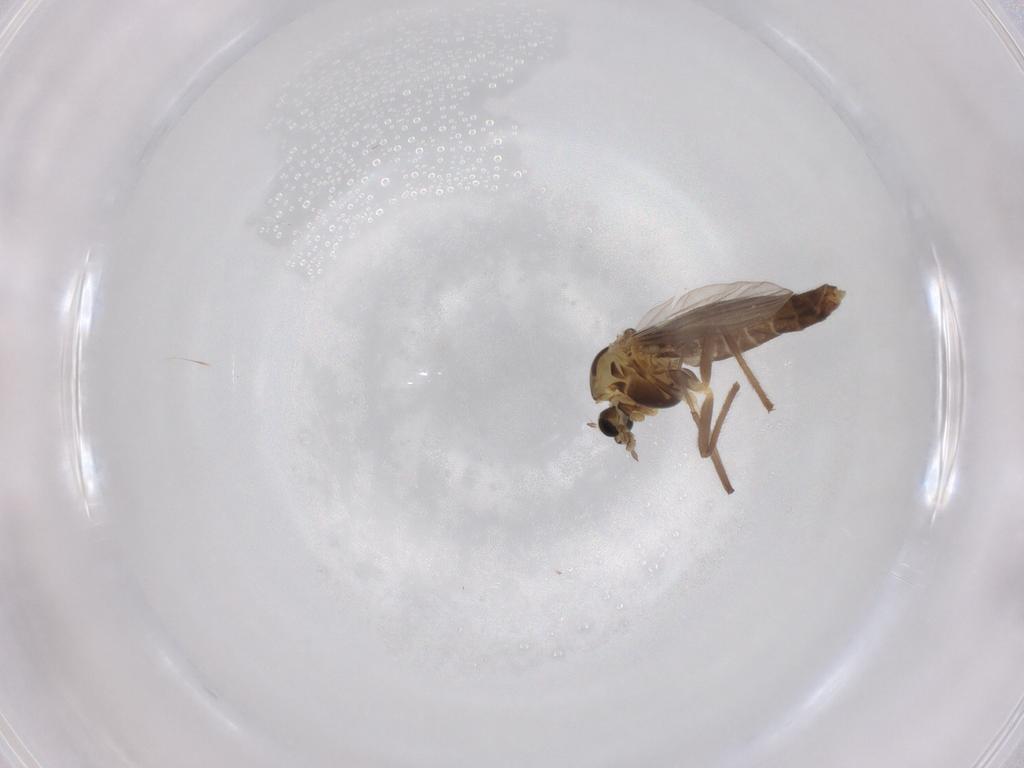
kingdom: Animalia
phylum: Arthropoda
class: Insecta
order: Diptera
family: Chironomidae
